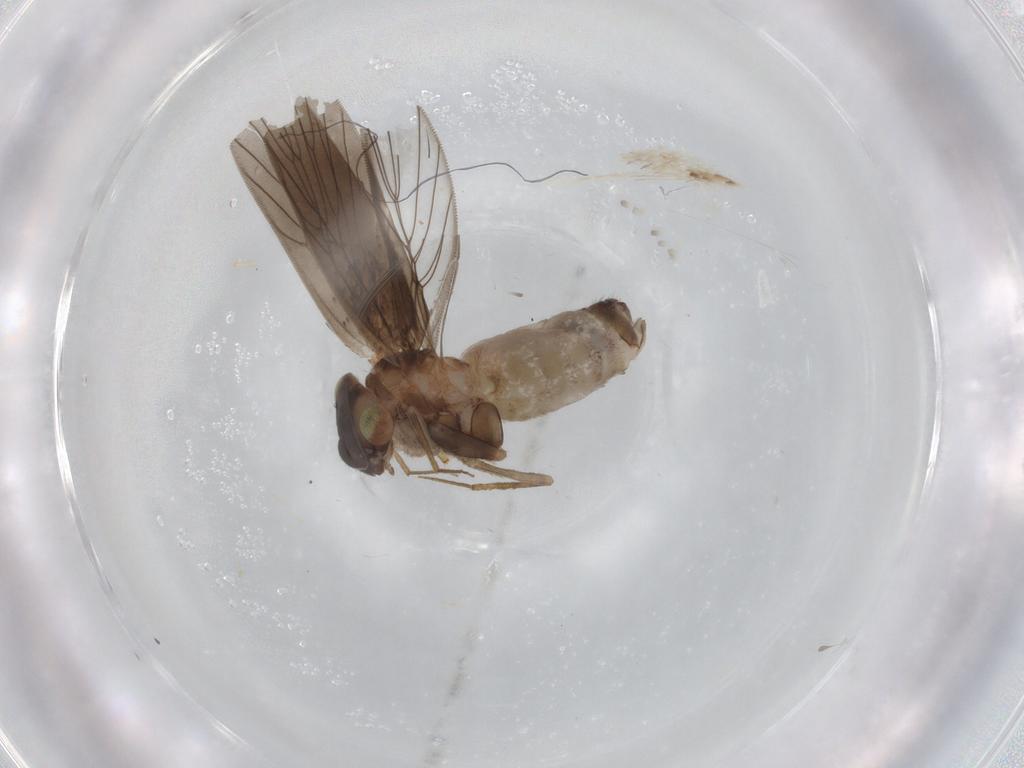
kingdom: Animalia
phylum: Arthropoda
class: Insecta
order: Psocodea
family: Lepidopsocidae
